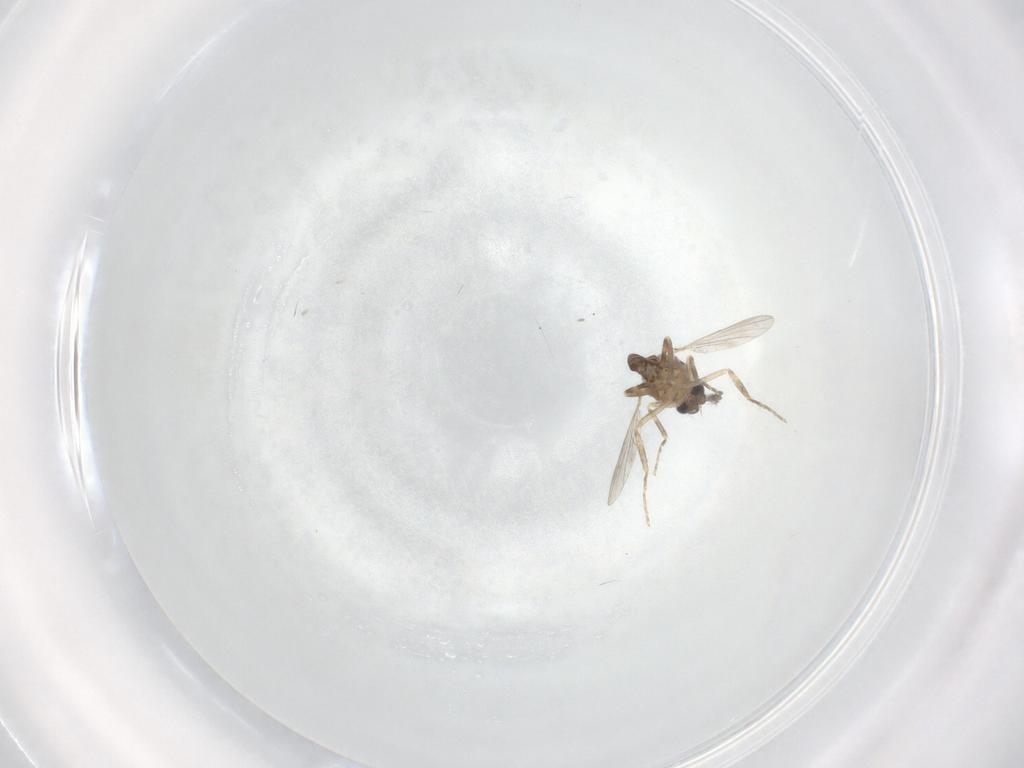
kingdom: Animalia
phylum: Arthropoda
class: Insecta
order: Diptera
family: Ceratopogonidae
